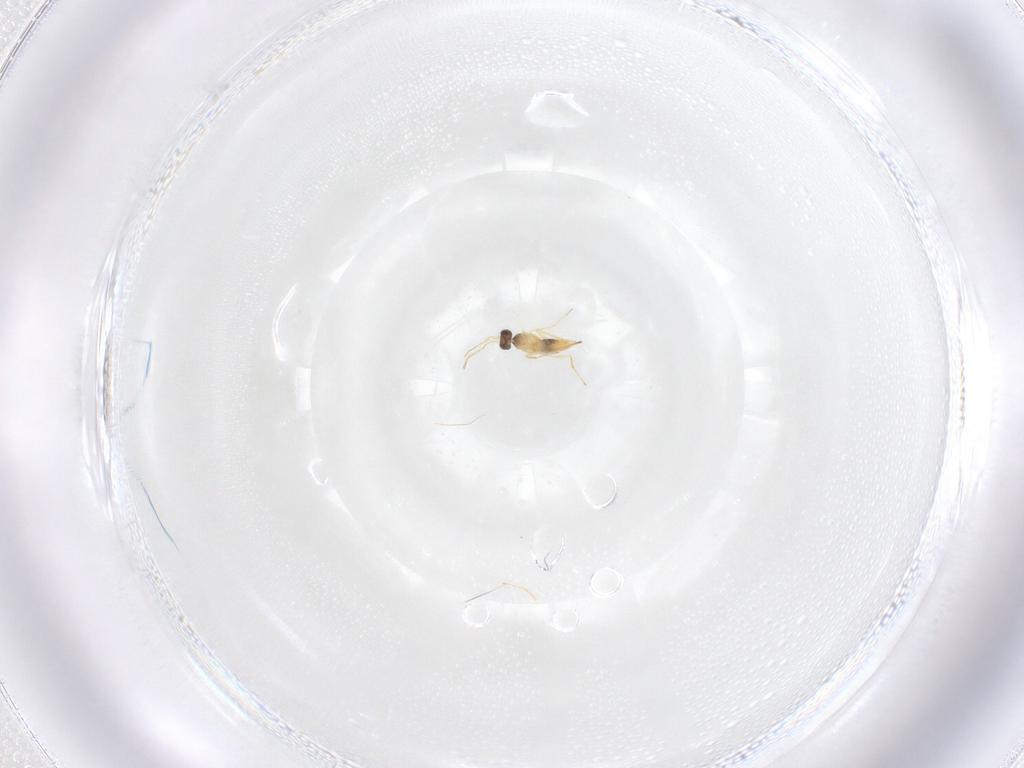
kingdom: Animalia
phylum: Arthropoda
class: Insecta
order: Hymenoptera
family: Mymaridae
